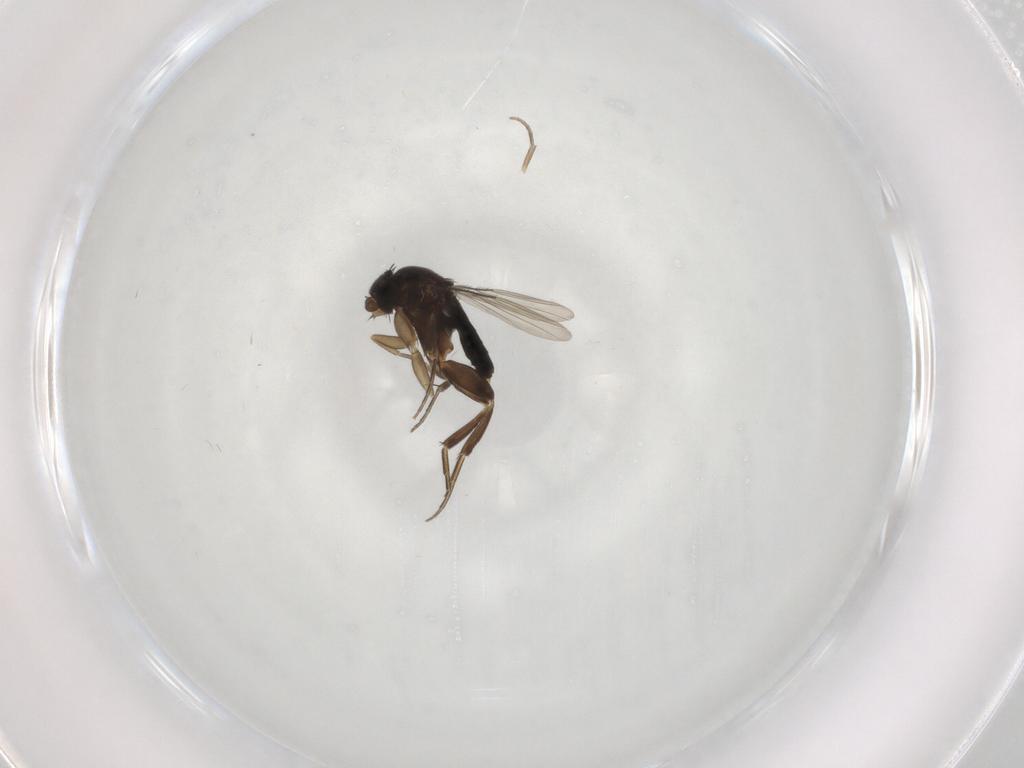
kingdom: Animalia
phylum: Arthropoda
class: Insecta
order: Diptera
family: Phoridae
